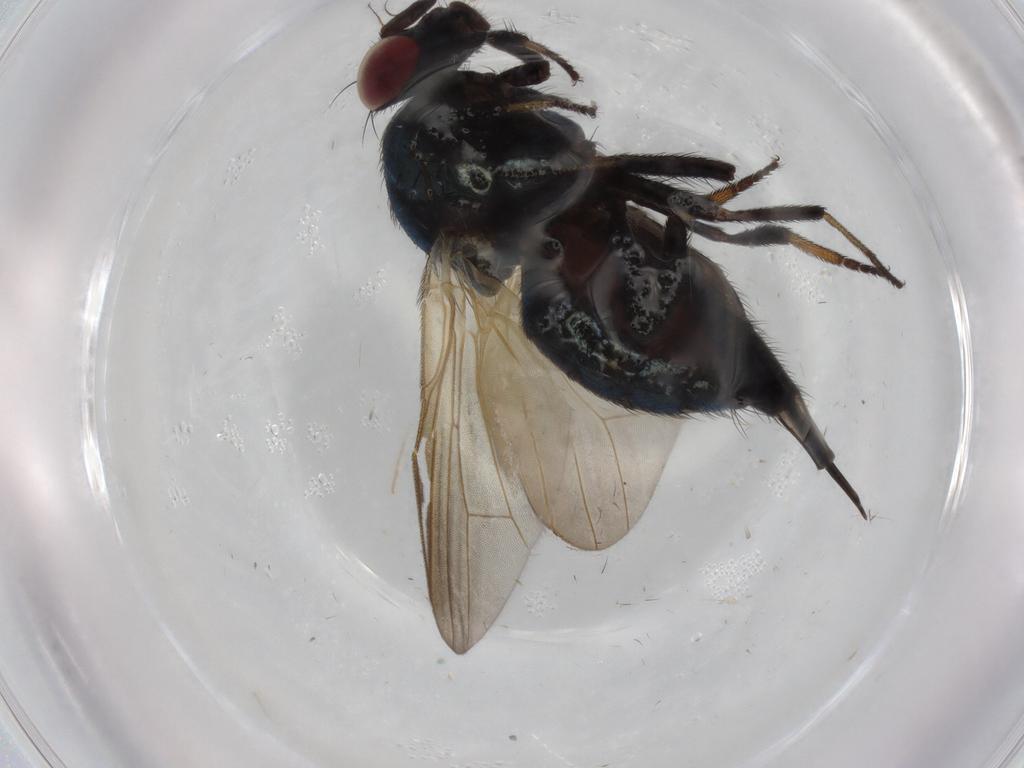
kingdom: Animalia
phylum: Arthropoda
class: Insecta
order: Diptera
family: Lonchaeidae
